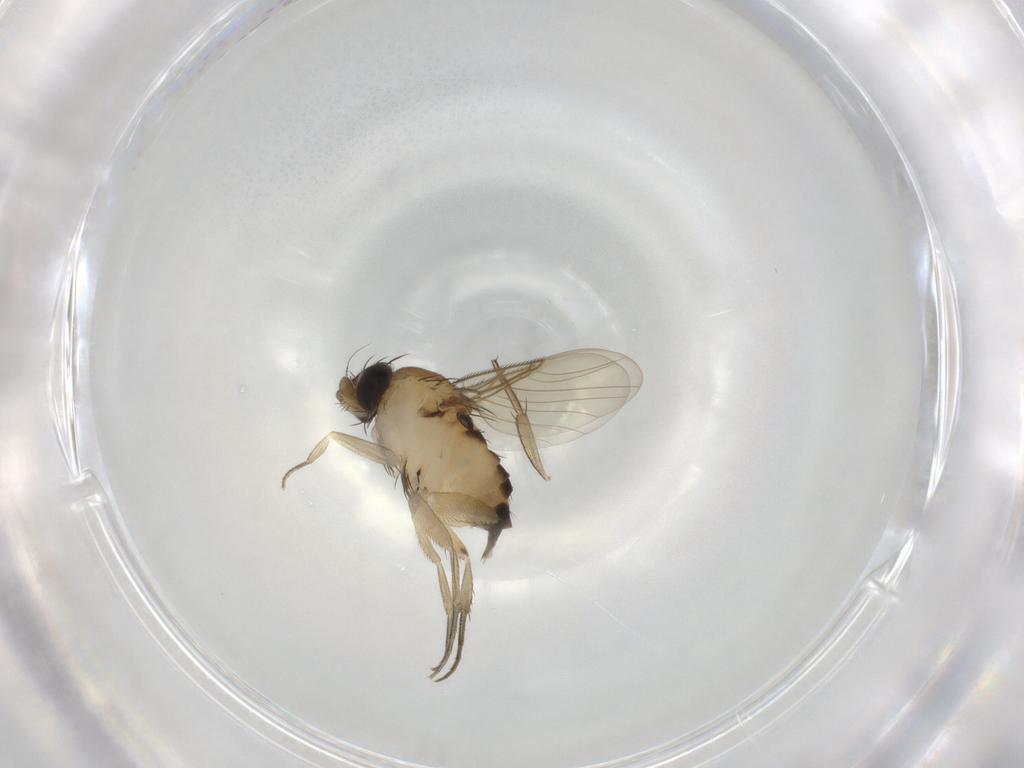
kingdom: Animalia
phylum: Arthropoda
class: Insecta
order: Diptera
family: Phoridae
